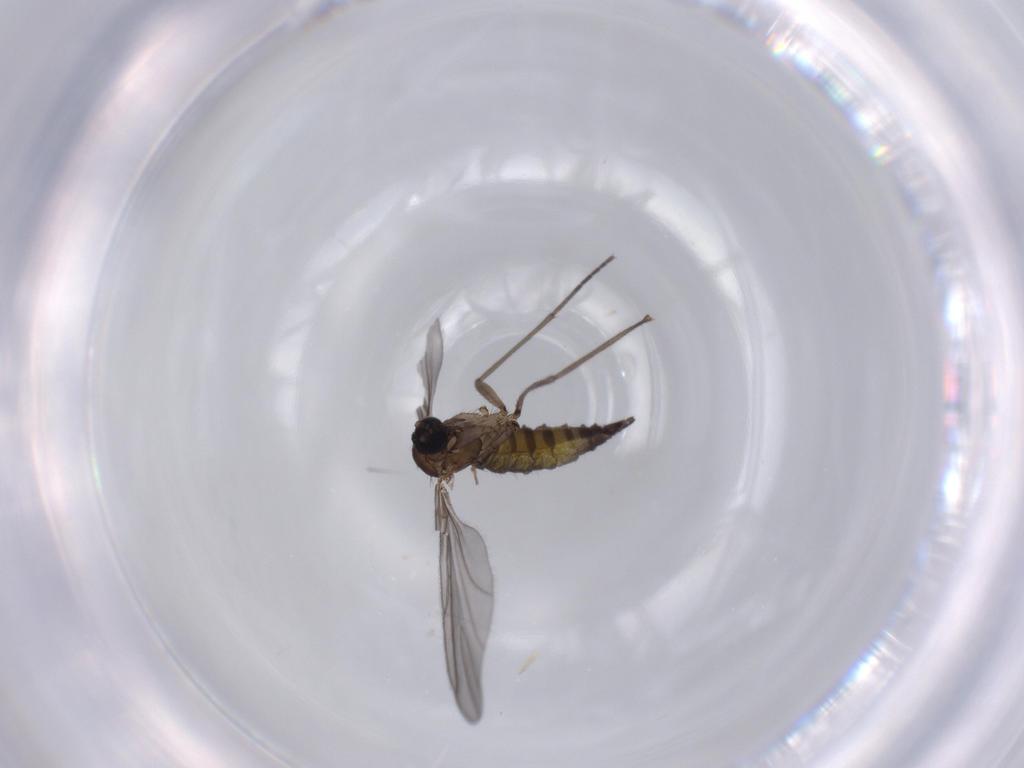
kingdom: Animalia
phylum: Arthropoda
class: Insecta
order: Diptera
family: Sciaridae
